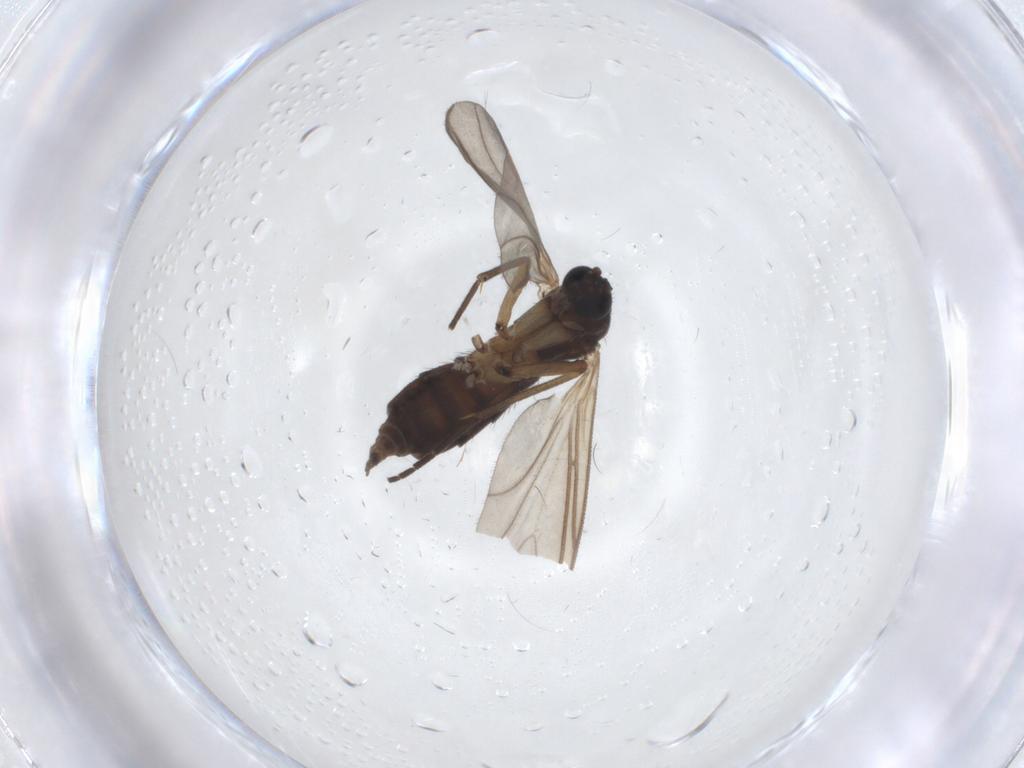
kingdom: Animalia
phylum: Arthropoda
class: Insecta
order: Diptera
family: Sciaridae
